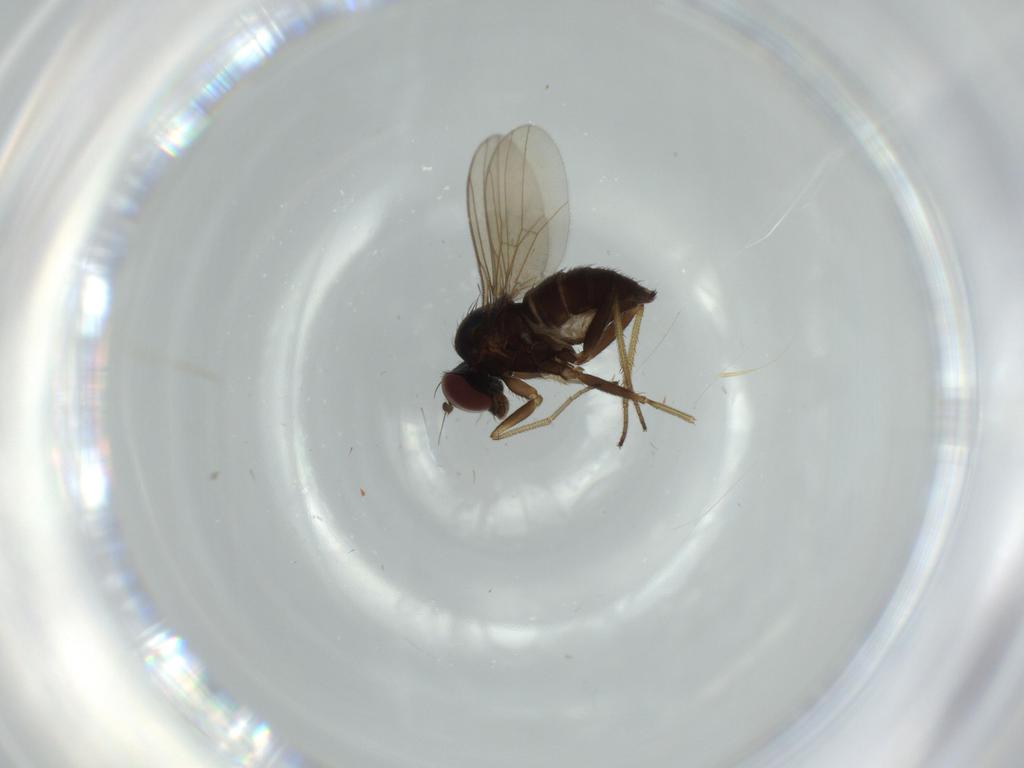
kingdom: Animalia
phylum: Arthropoda
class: Insecta
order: Diptera
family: Dolichopodidae
